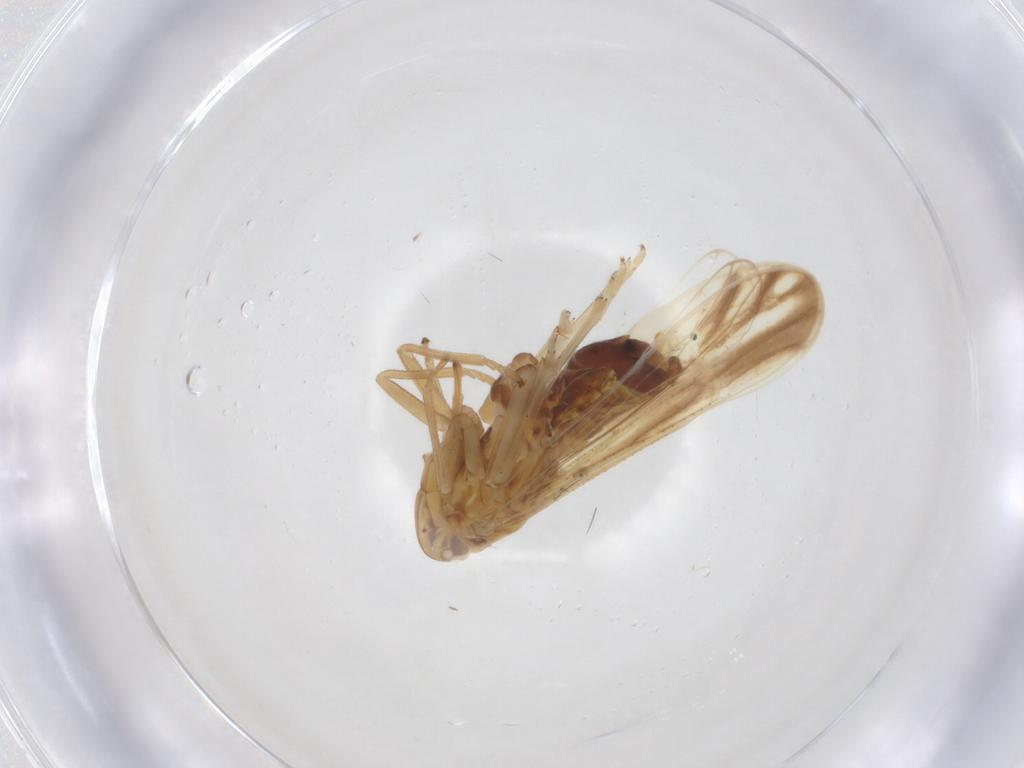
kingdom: Animalia
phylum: Arthropoda
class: Insecta
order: Hemiptera
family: Delphacidae
